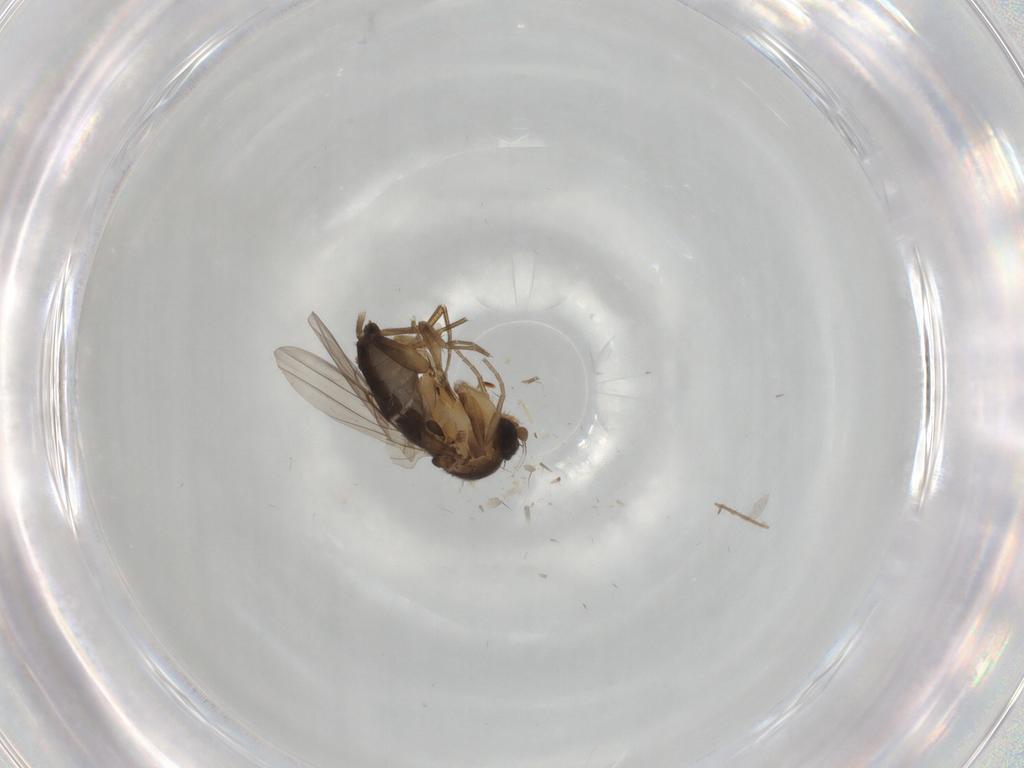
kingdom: Animalia
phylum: Arthropoda
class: Insecta
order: Diptera
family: Phoridae
